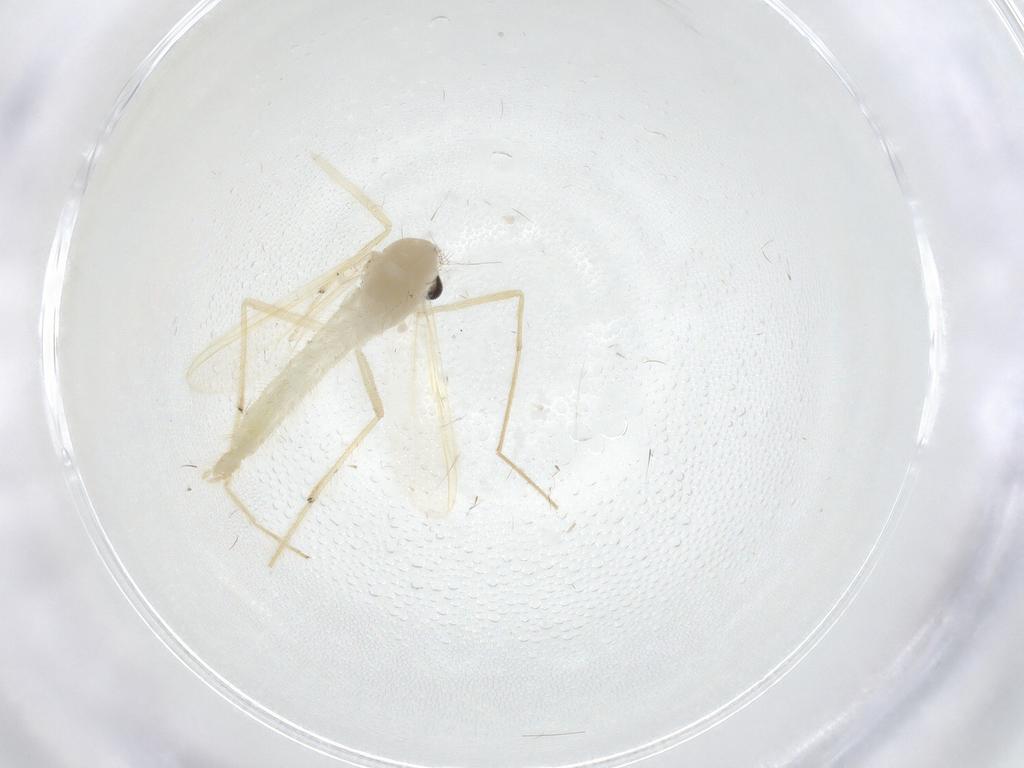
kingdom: Animalia
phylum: Arthropoda
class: Insecta
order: Diptera
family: Chironomidae
